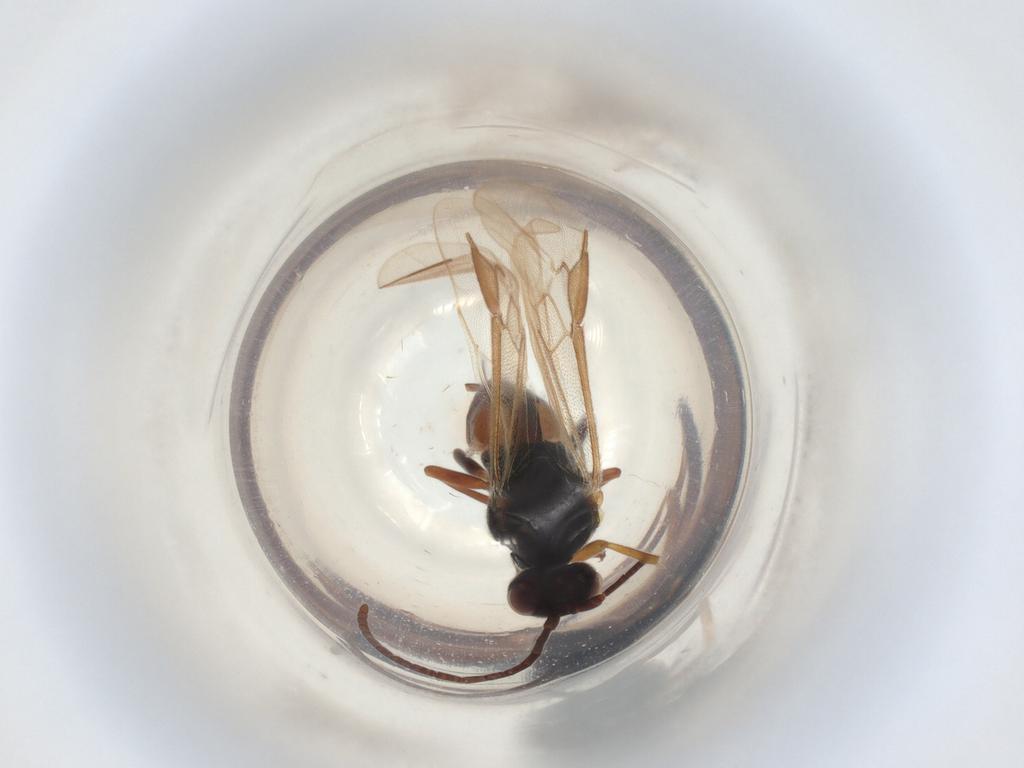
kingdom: Animalia
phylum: Arthropoda
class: Insecta
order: Hymenoptera
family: Braconidae
